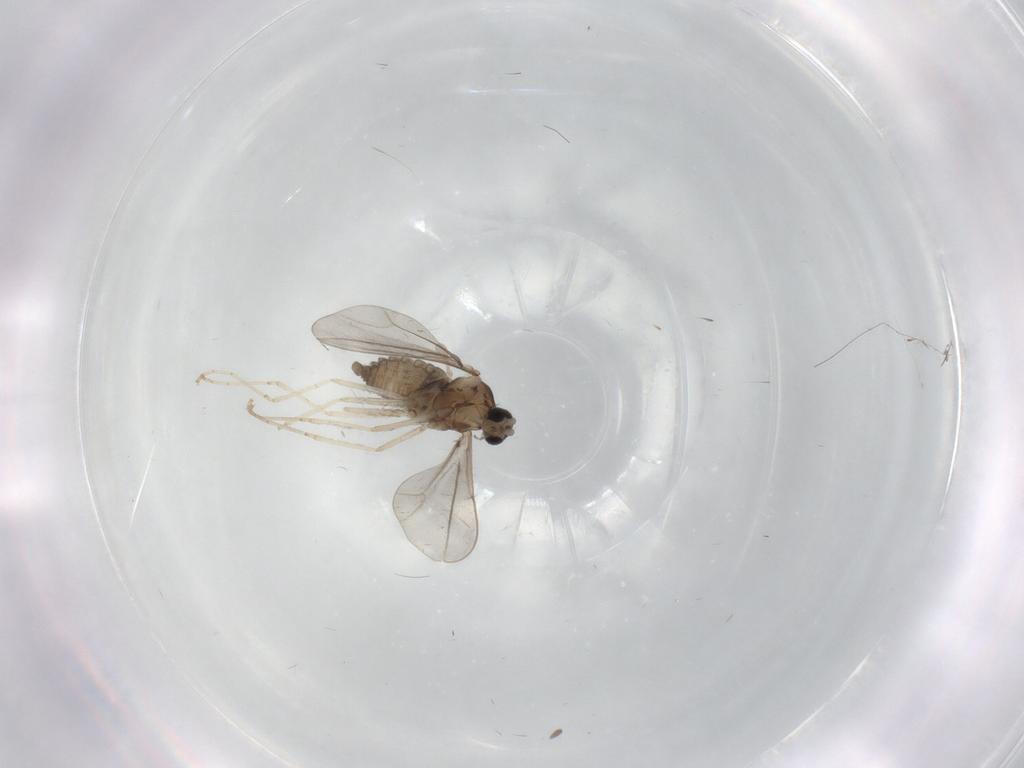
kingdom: Animalia
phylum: Arthropoda
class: Insecta
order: Diptera
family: Cecidomyiidae
